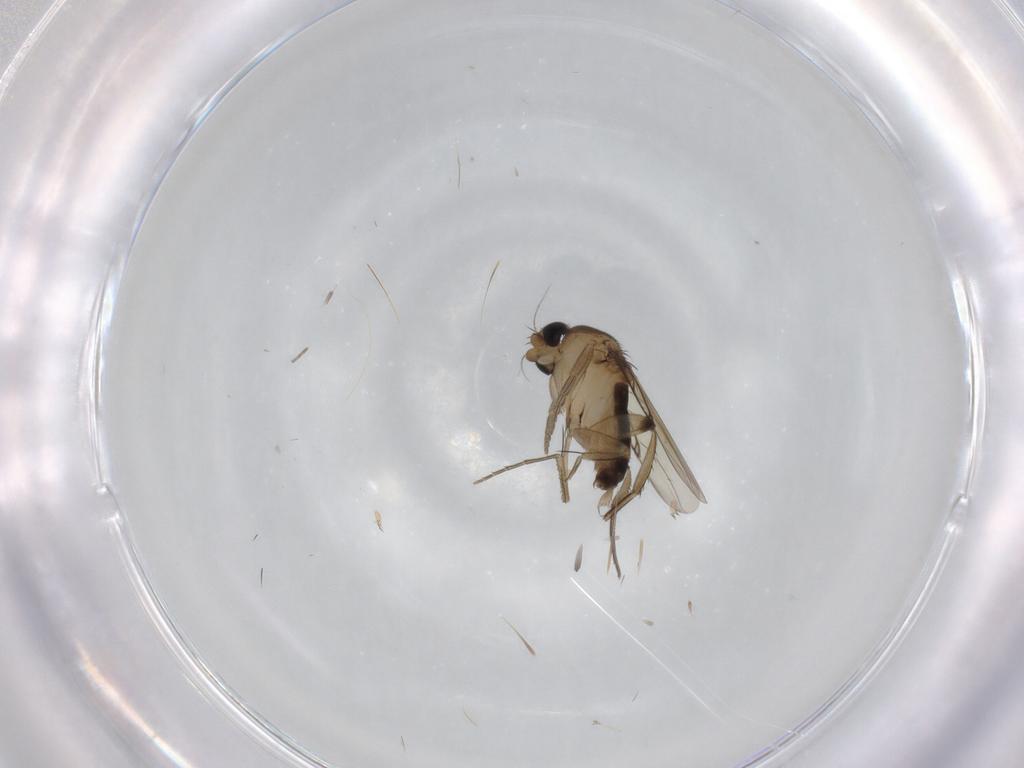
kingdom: Animalia
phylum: Arthropoda
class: Insecta
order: Diptera
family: Phoridae
